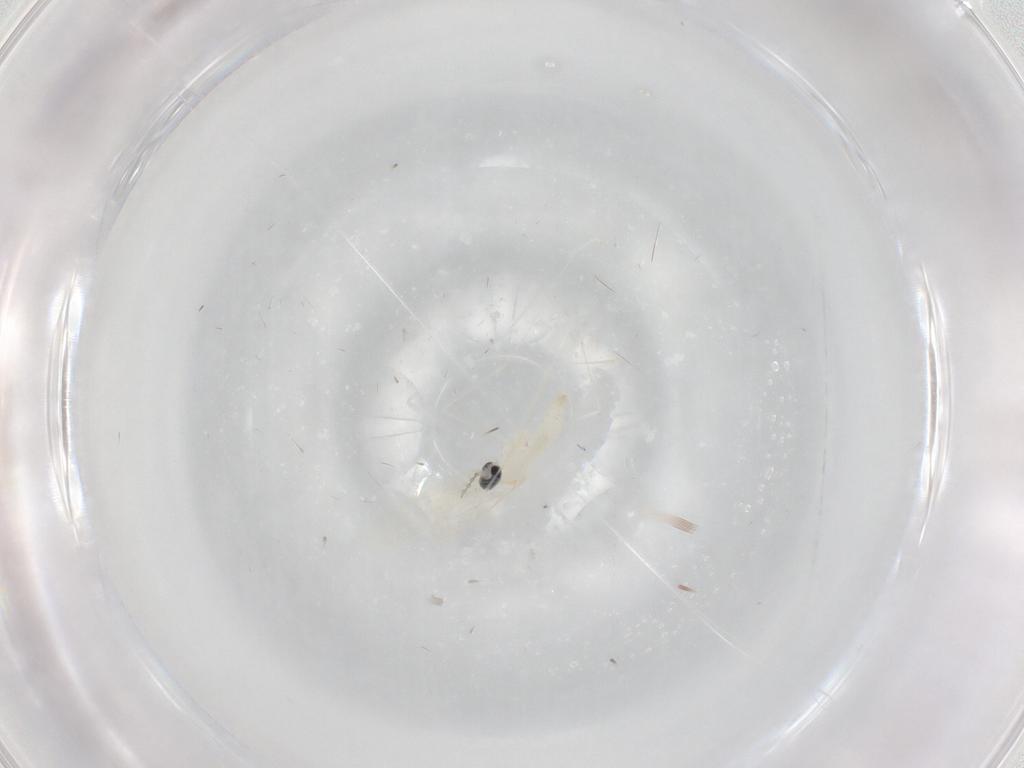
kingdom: Animalia
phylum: Arthropoda
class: Insecta
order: Diptera
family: Cecidomyiidae
